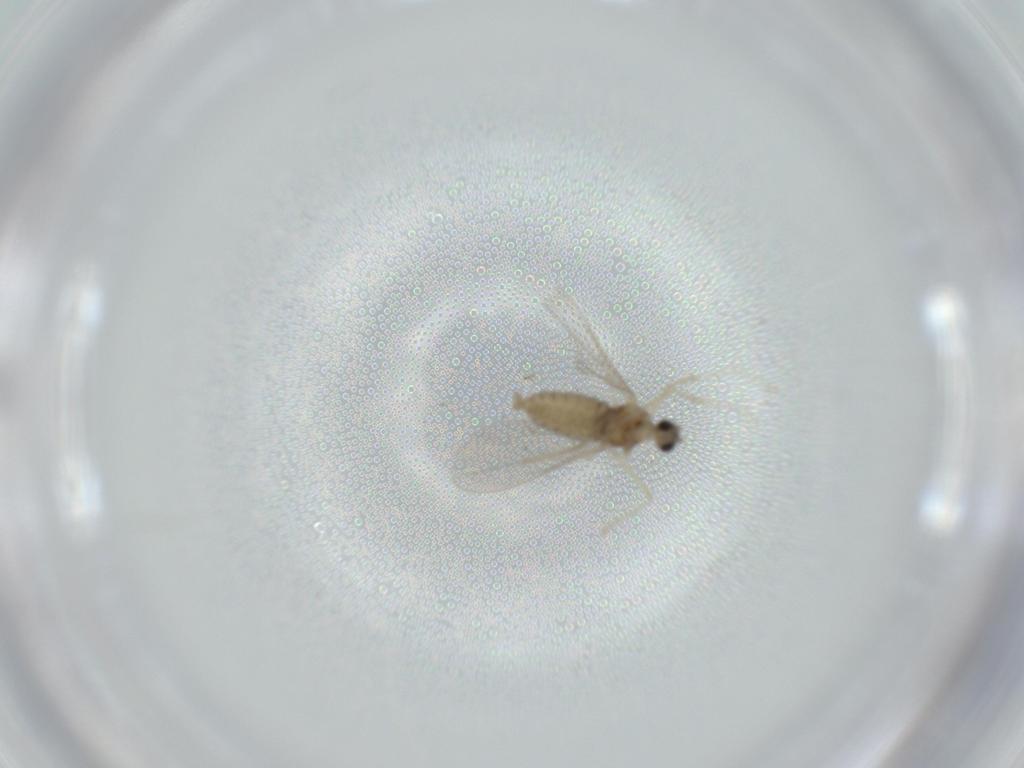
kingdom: Animalia
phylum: Arthropoda
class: Insecta
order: Diptera
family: Cecidomyiidae
